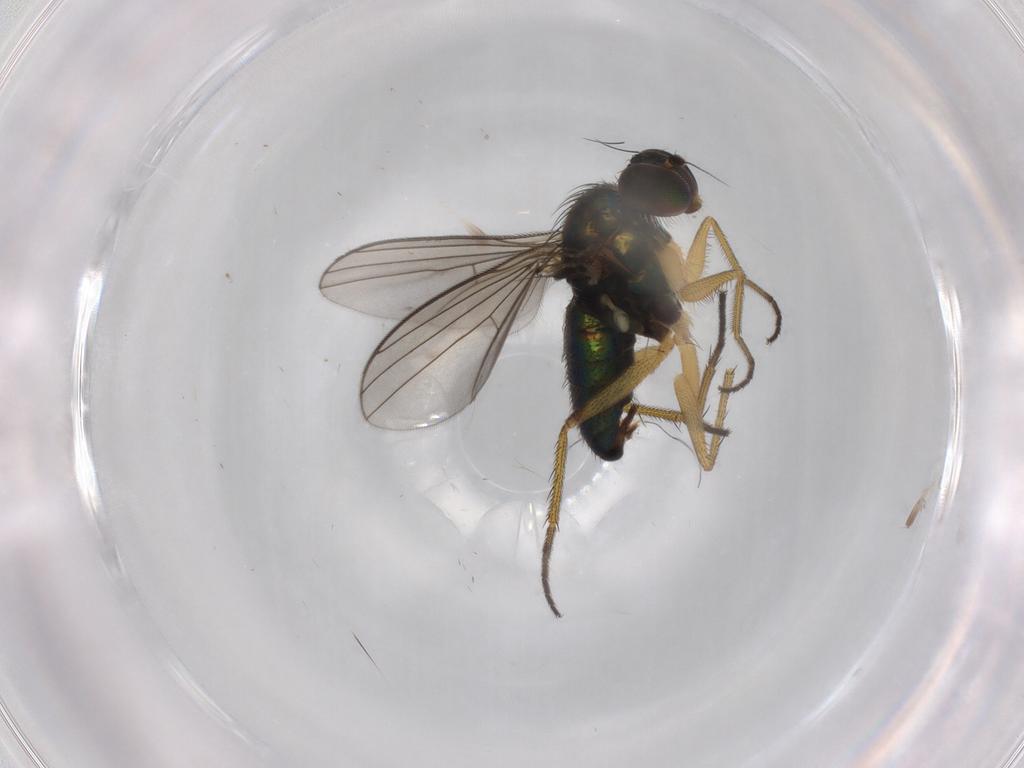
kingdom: Animalia
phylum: Arthropoda
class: Insecta
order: Diptera
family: Dolichopodidae
